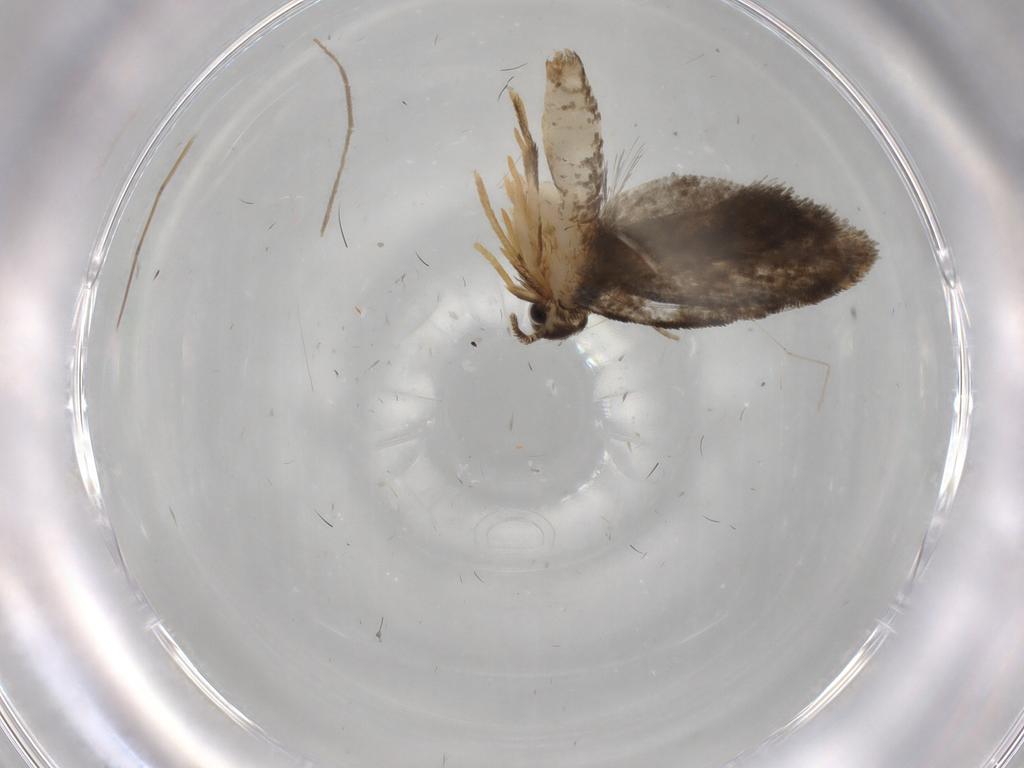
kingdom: Animalia
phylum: Arthropoda
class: Insecta
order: Lepidoptera
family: Psychidae
